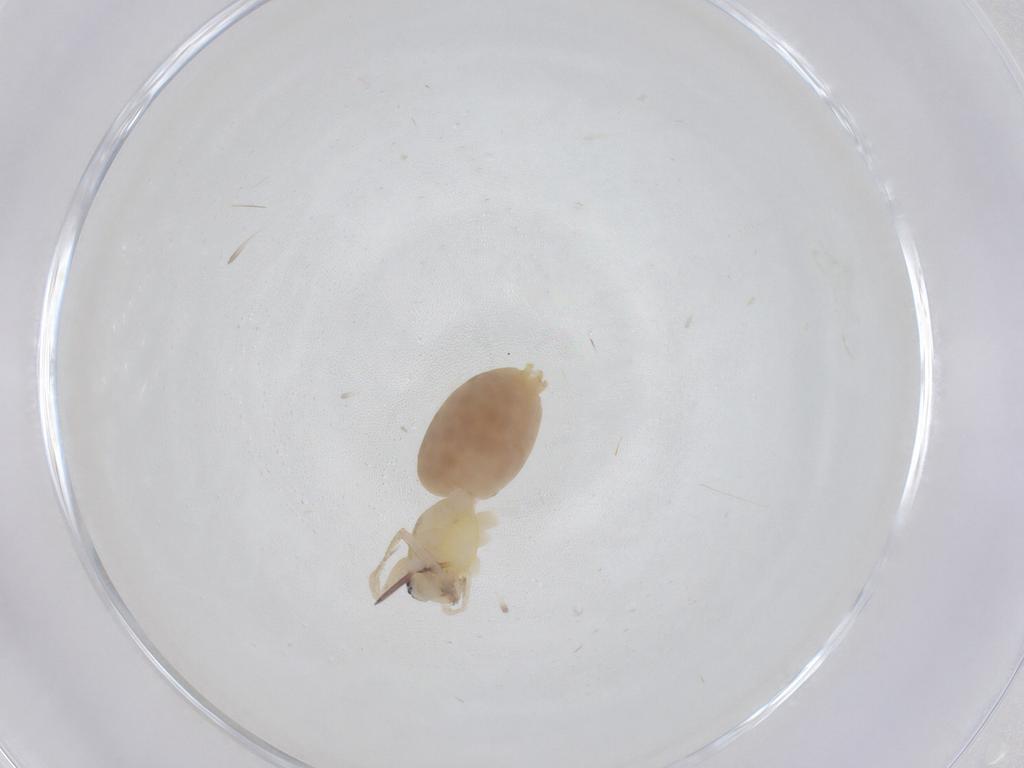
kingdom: Animalia
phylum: Arthropoda
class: Arachnida
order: Araneae
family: Anyphaenidae
